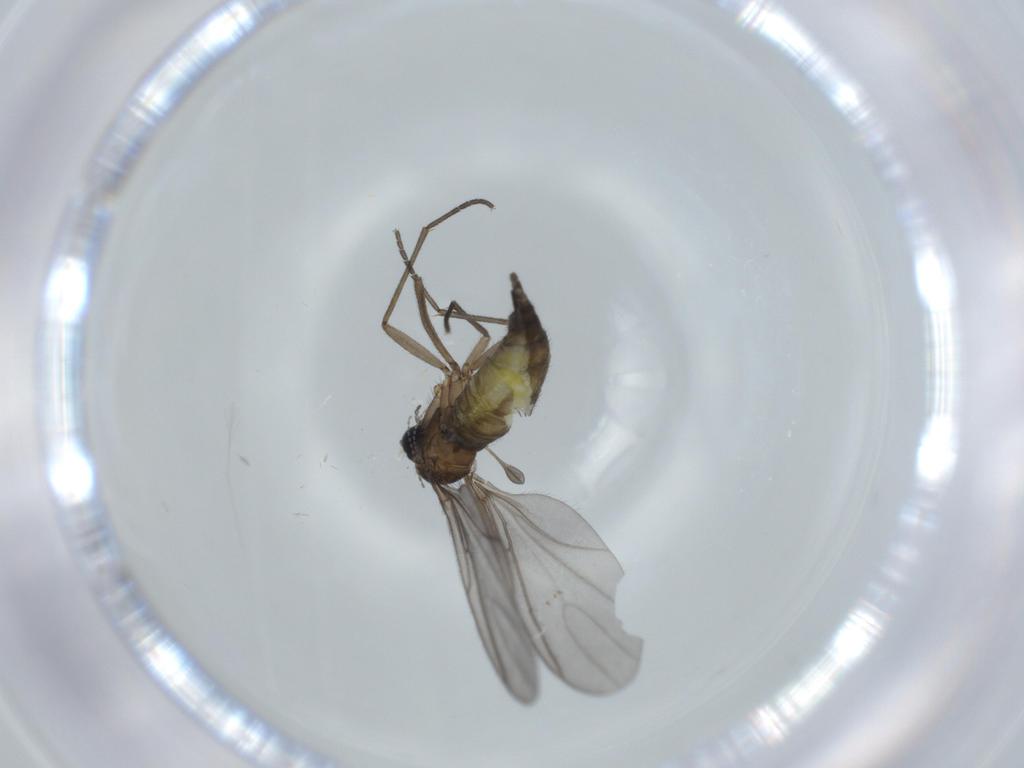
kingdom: Animalia
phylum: Arthropoda
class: Insecta
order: Diptera
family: Sciaridae
